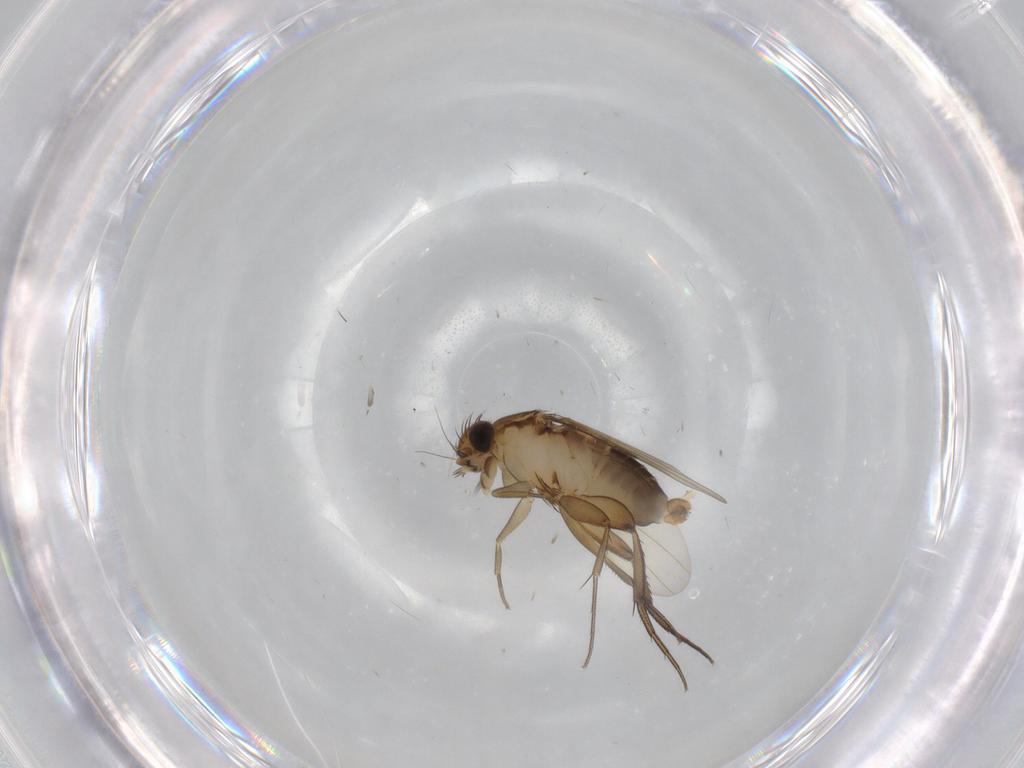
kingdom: Animalia
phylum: Arthropoda
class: Insecta
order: Diptera
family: Phoridae
